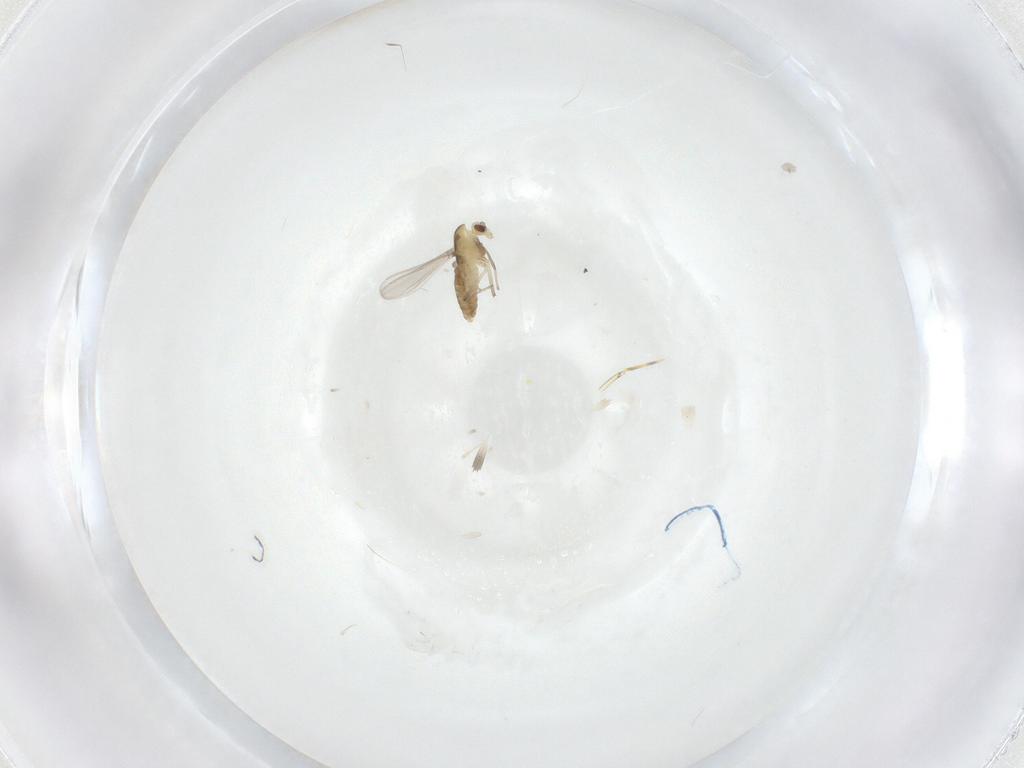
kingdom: Animalia
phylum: Arthropoda
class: Insecta
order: Diptera
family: Chironomidae
